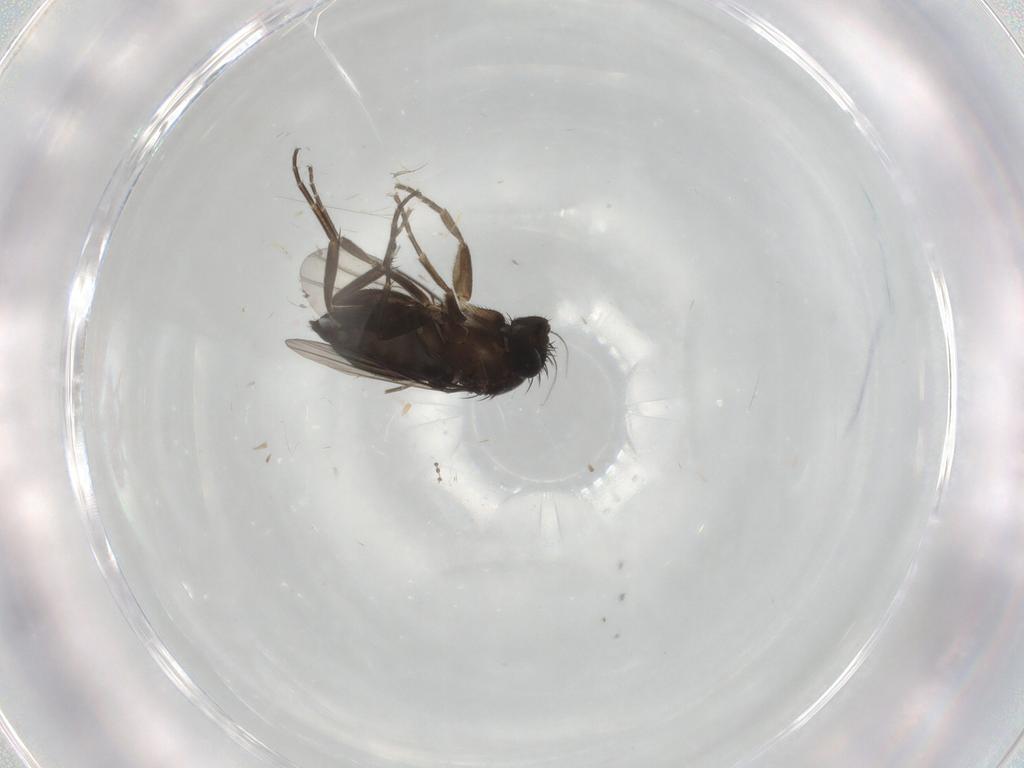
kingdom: Animalia
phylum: Arthropoda
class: Insecta
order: Diptera
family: Phoridae
